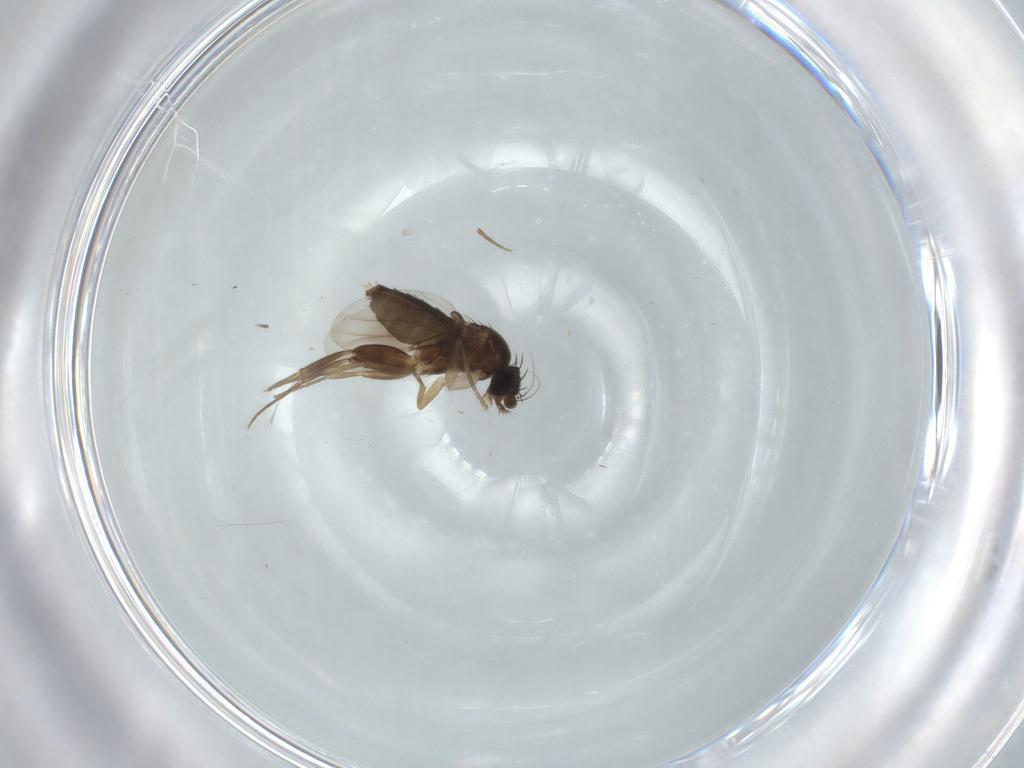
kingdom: Animalia
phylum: Arthropoda
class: Insecta
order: Diptera
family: Phoridae
